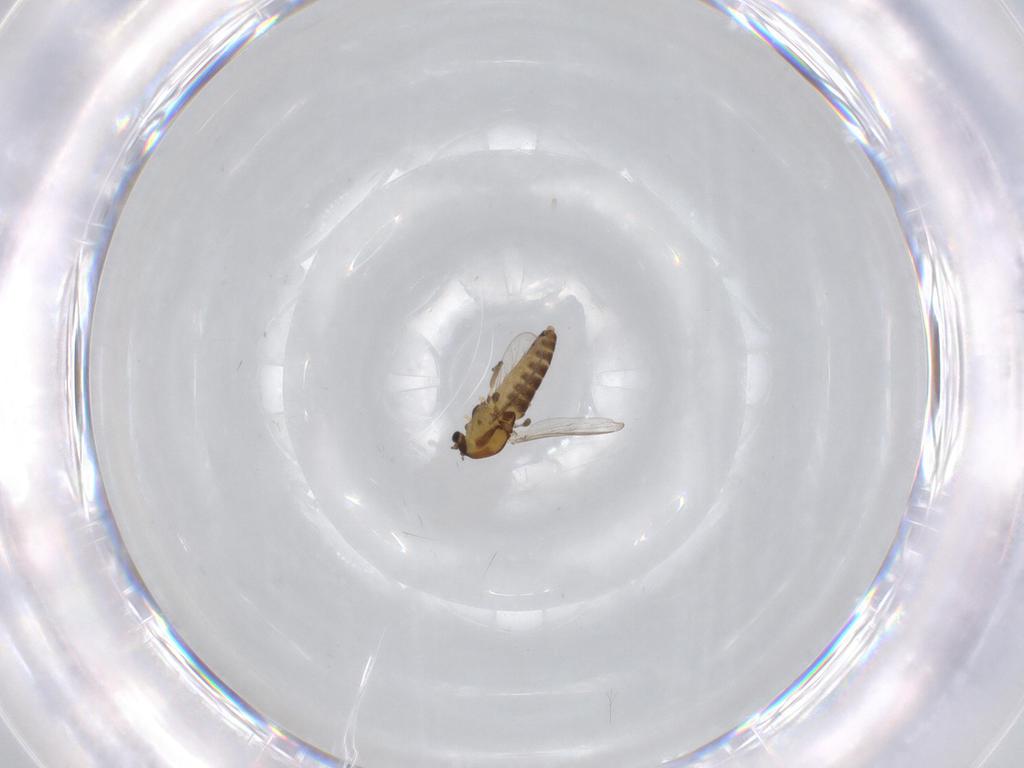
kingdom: Animalia
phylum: Arthropoda
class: Insecta
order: Diptera
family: Chironomidae
